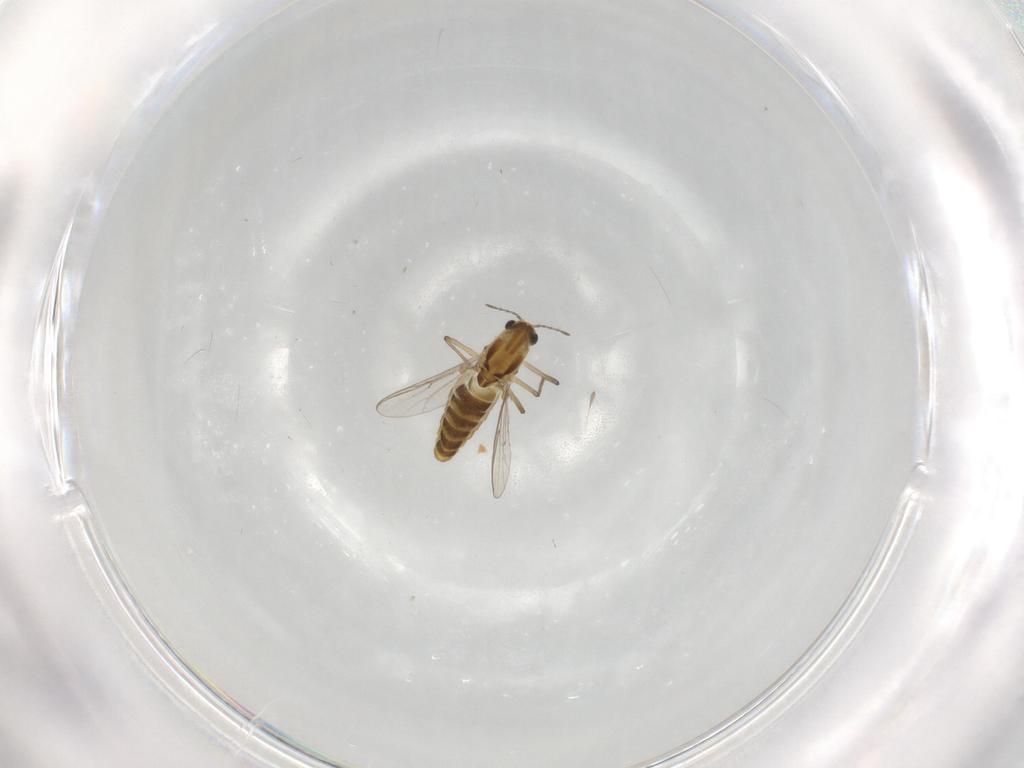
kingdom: Animalia
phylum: Arthropoda
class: Insecta
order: Diptera
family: Chironomidae
